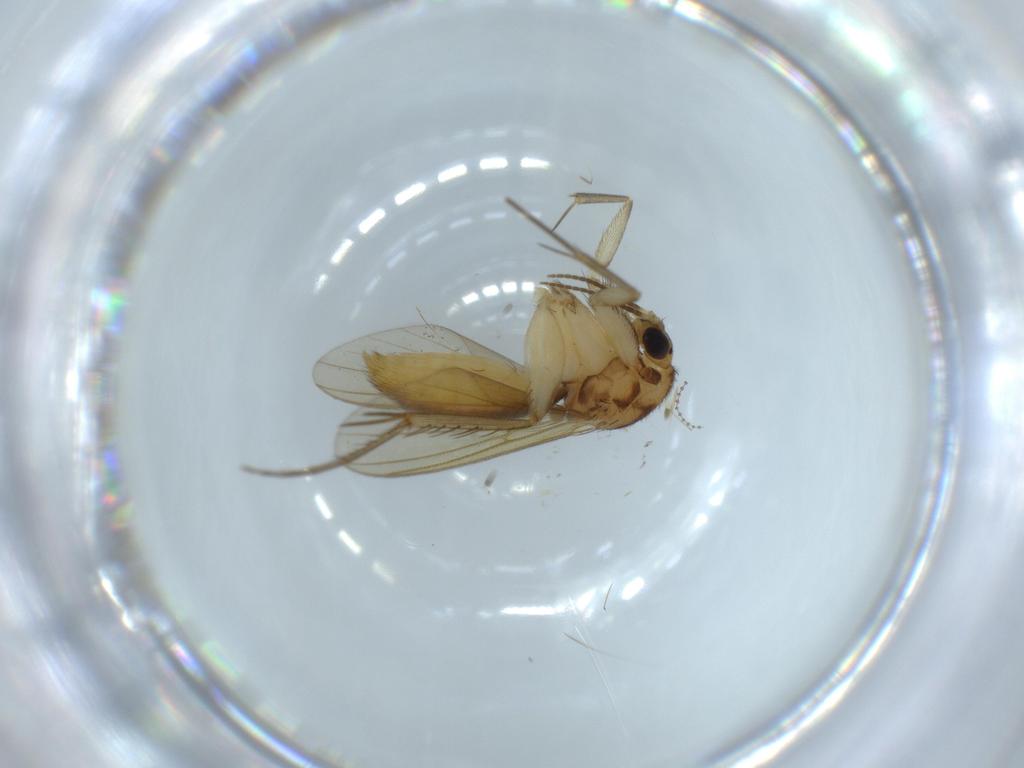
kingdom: Animalia
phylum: Arthropoda
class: Insecta
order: Diptera
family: Mycetophilidae
